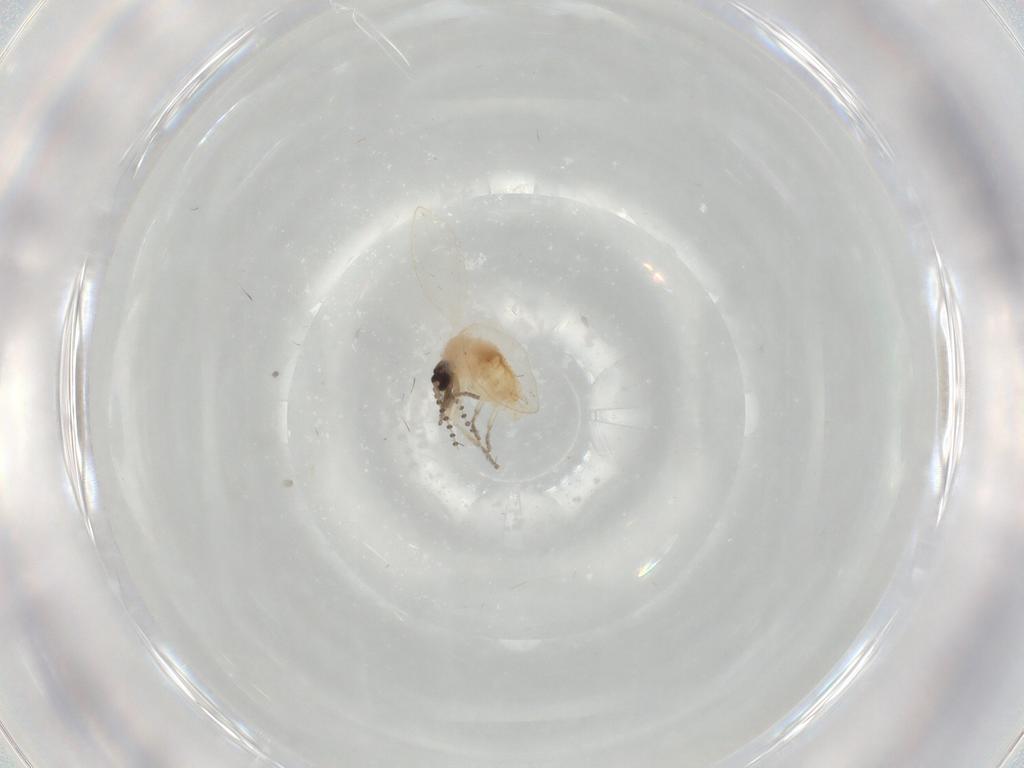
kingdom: Animalia
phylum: Arthropoda
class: Insecta
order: Diptera
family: Psychodidae
